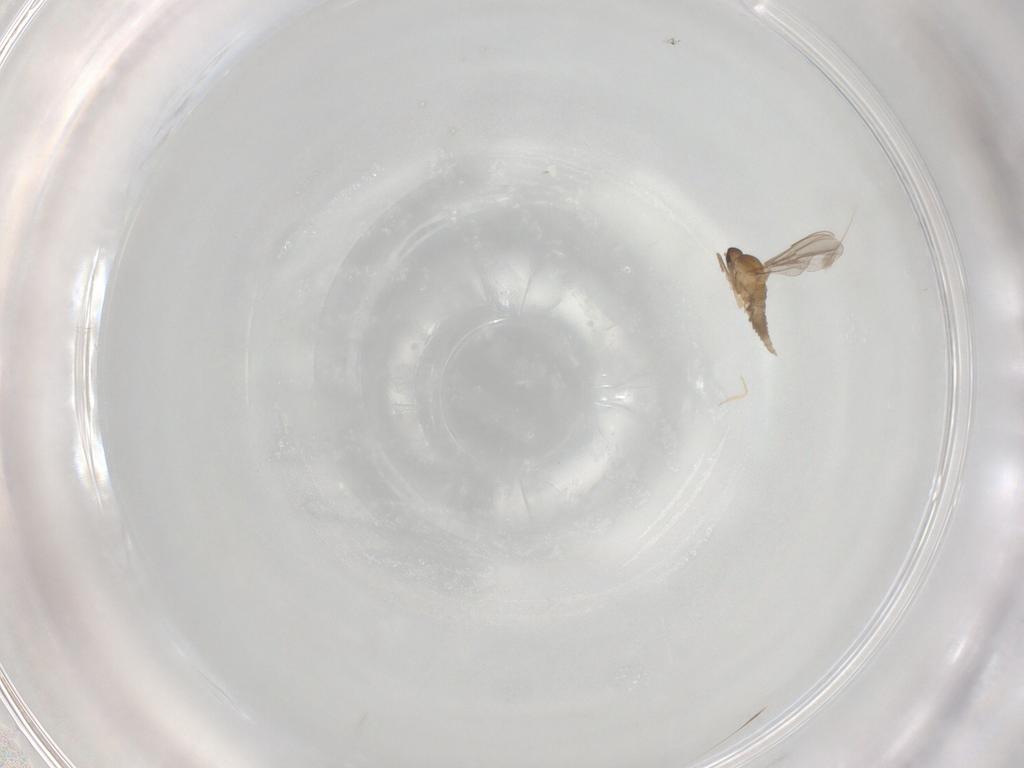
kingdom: Animalia
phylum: Arthropoda
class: Insecta
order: Diptera
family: Cecidomyiidae
